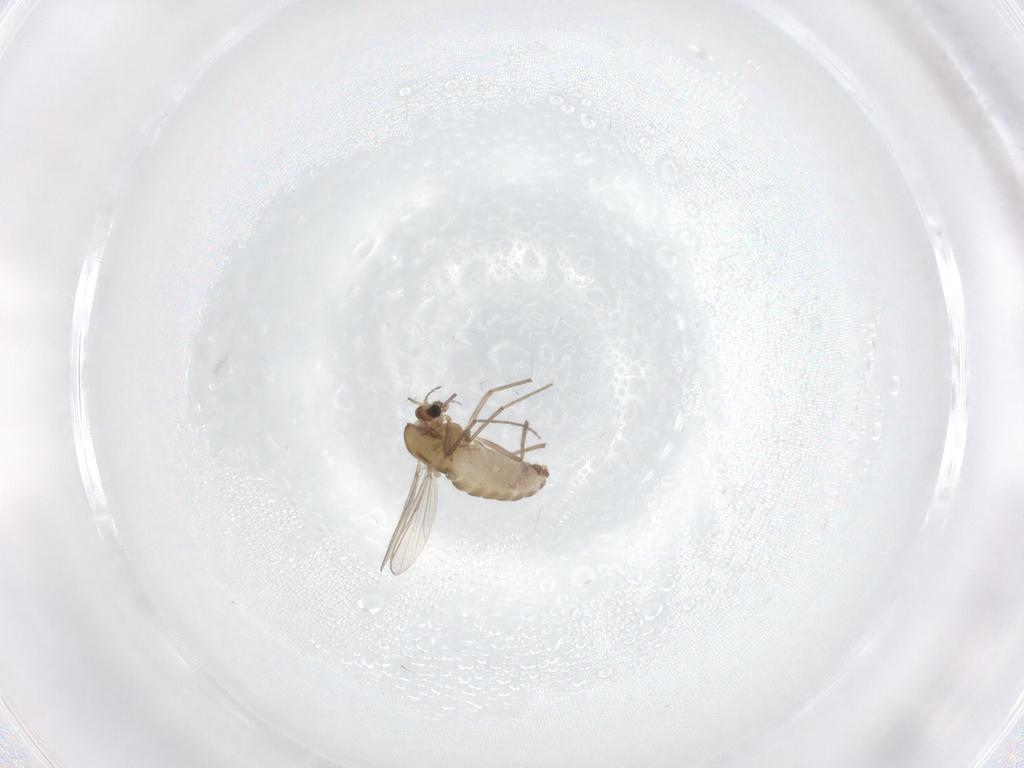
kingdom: Animalia
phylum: Arthropoda
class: Insecta
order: Diptera
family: Chironomidae
